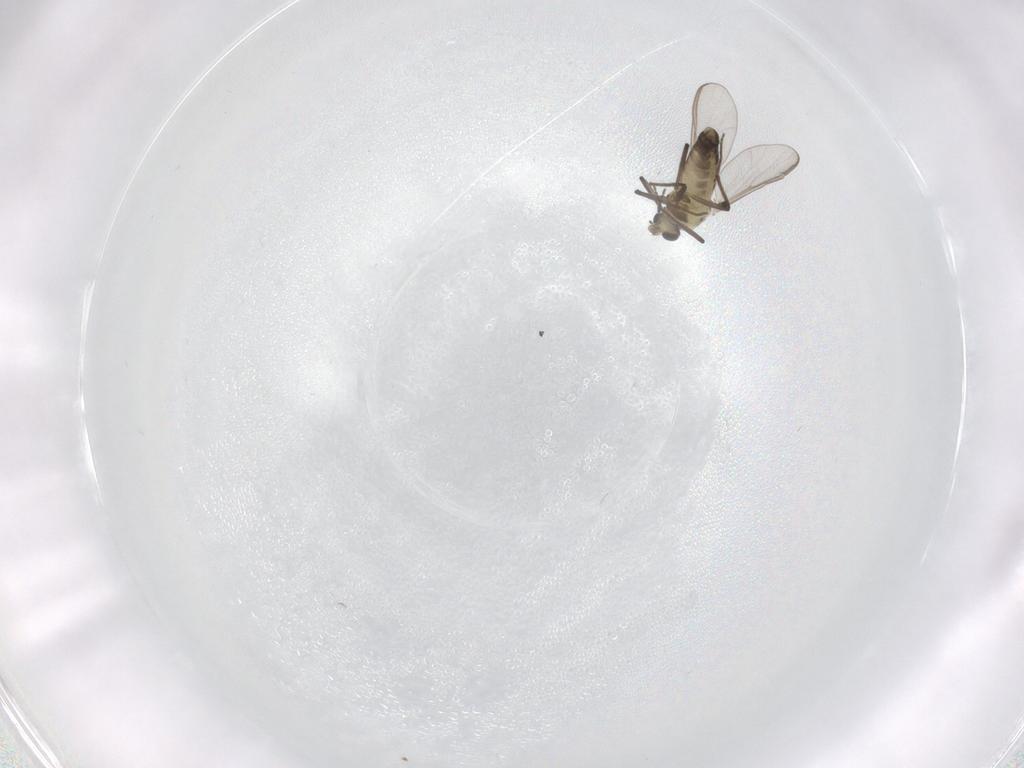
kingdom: Animalia
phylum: Arthropoda
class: Insecta
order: Diptera
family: Chironomidae
